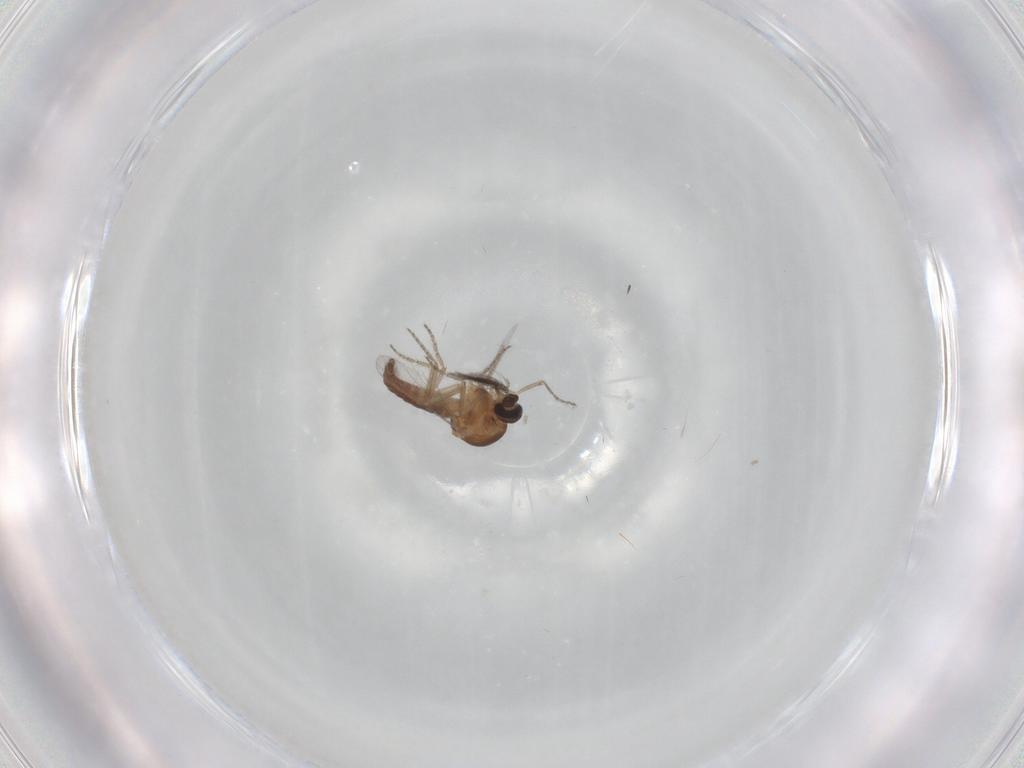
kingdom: Animalia
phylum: Arthropoda
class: Insecta
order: Diptera
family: Ceratopogonidae
